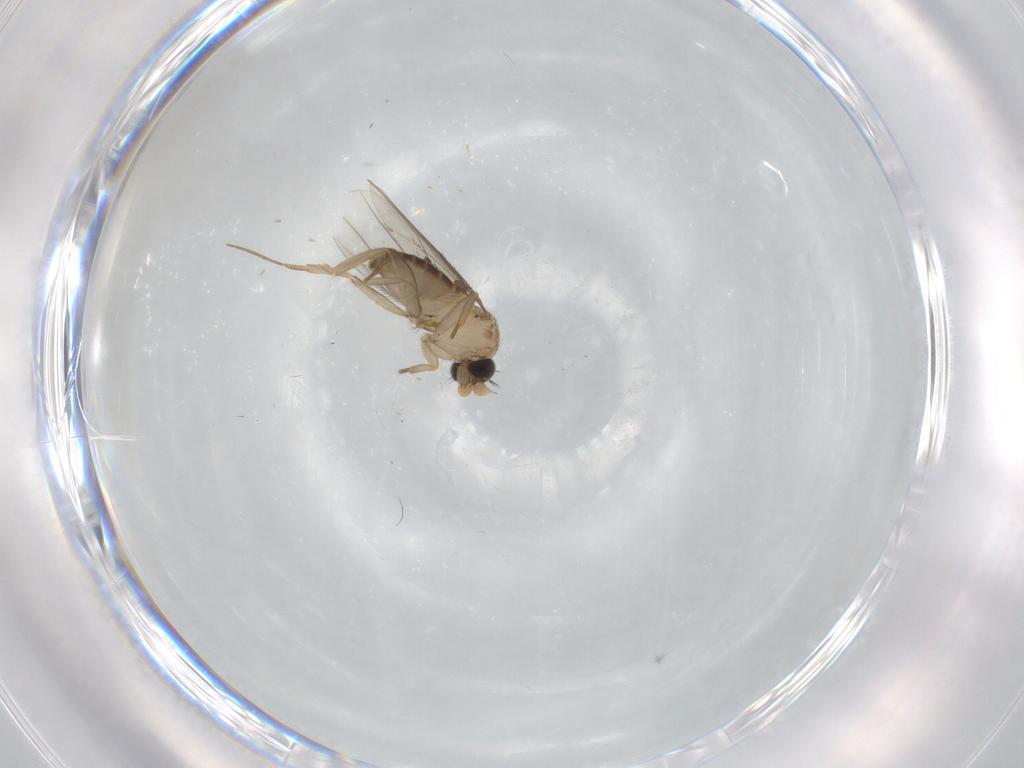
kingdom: Animalia
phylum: Arthropoda
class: Insecta
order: Diptera
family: Phoridae
